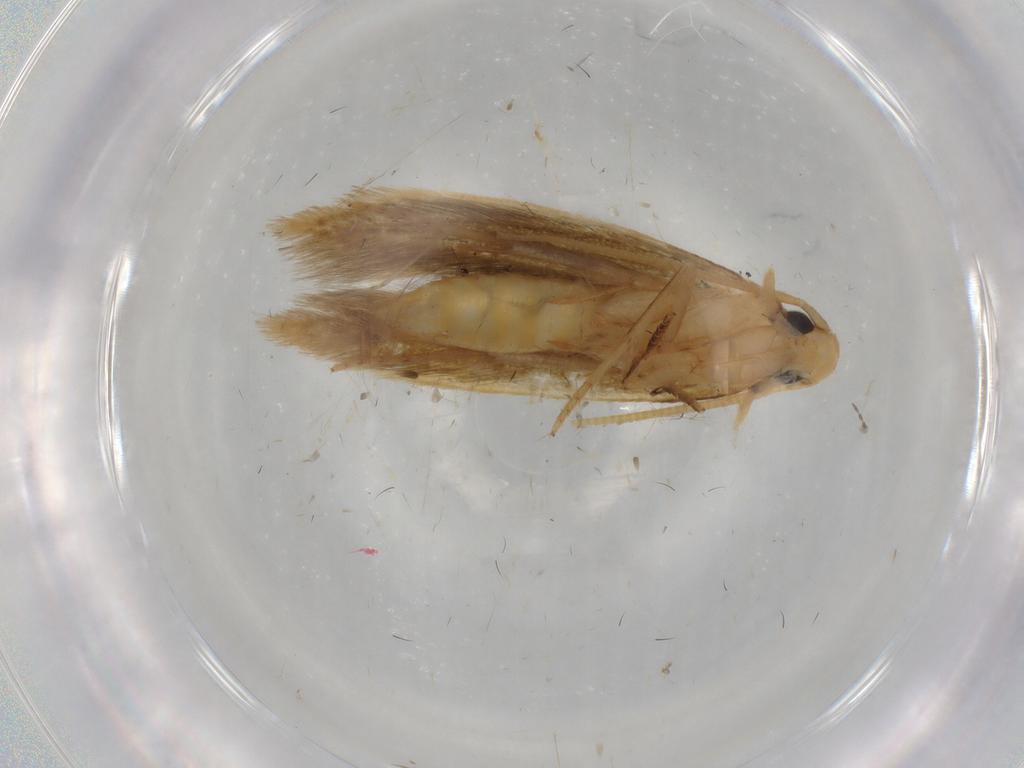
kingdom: Animalia
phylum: Arthropoda
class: Insecta
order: Lepidoptera
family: Tineidae
